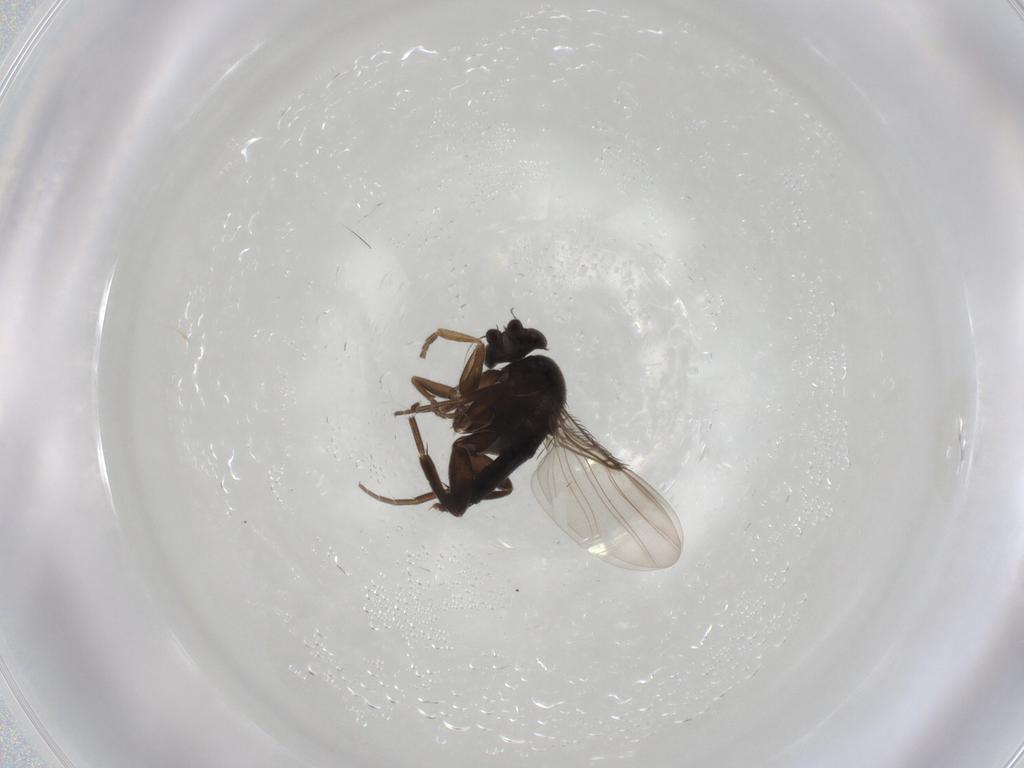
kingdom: Animalia
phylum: Arthropoda
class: Insecta
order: Diptera
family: Phoridae
